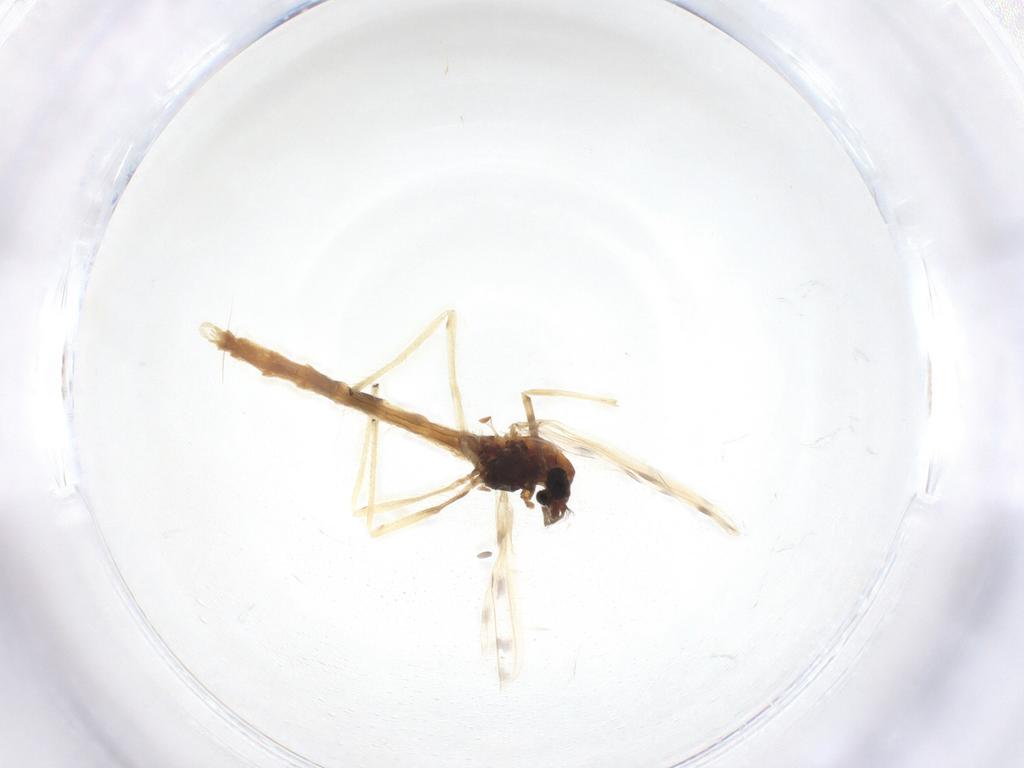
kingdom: Animalia
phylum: Arthropoda
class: Insecta
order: Diptera
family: Chironomidae
